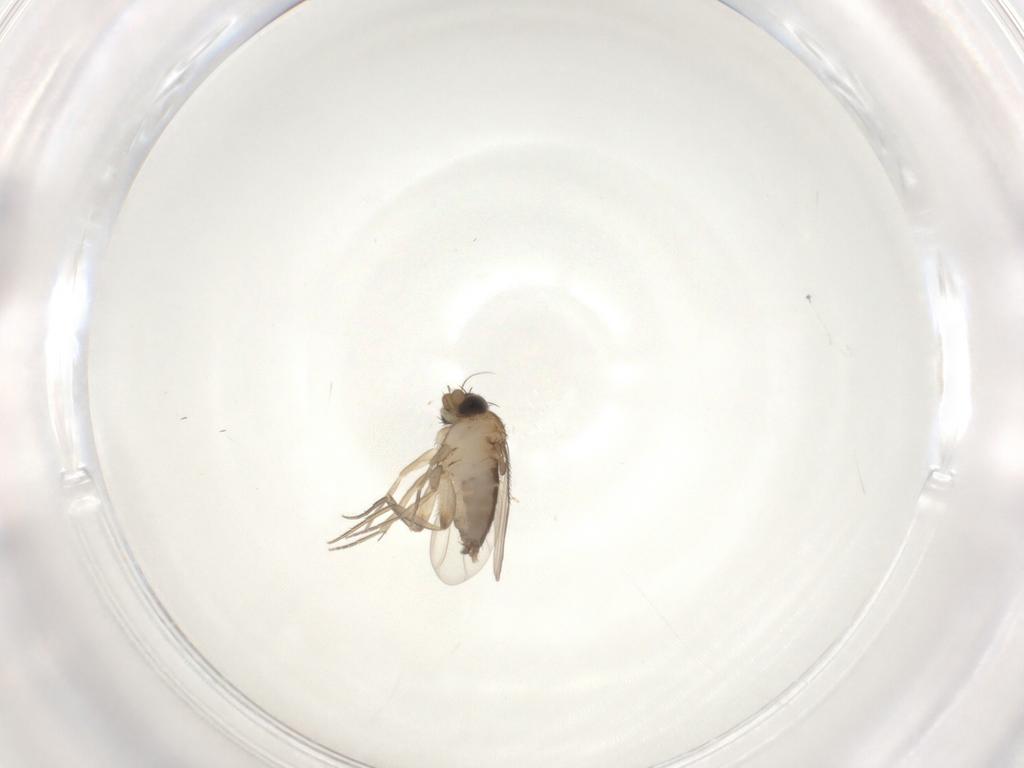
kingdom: Animalia
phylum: Arthropoda
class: Insecta
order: Diptera
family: Phoridae
